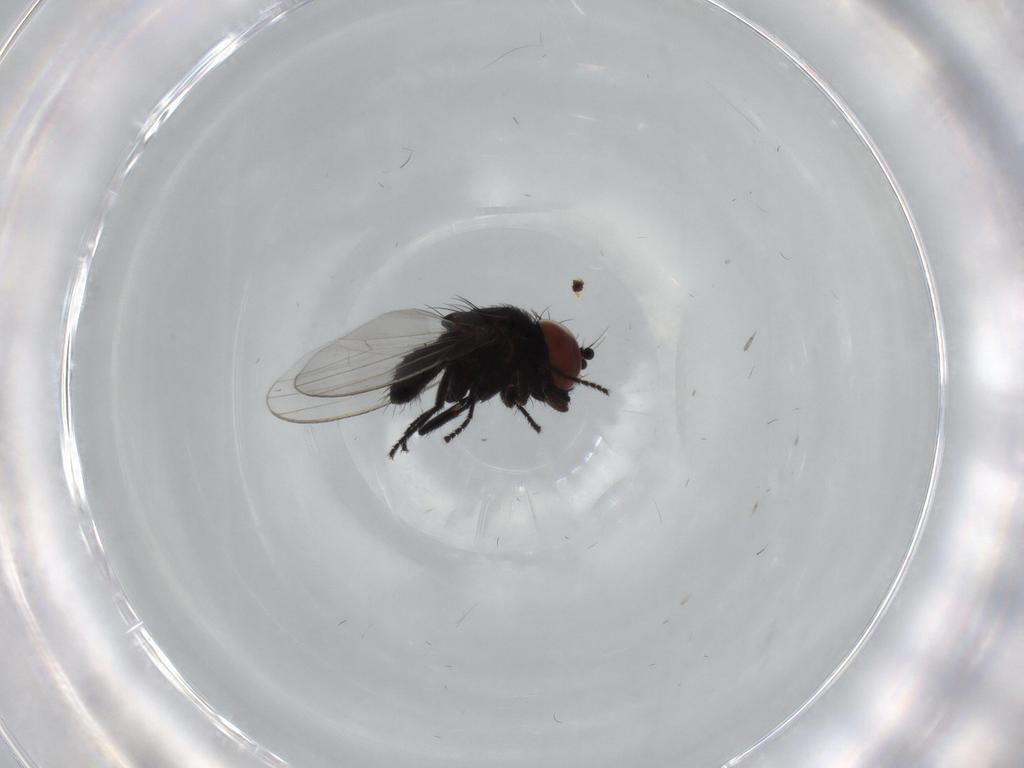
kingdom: Animalia
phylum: Arthropoda
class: Insecta
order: Diptera
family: Milichiidae
